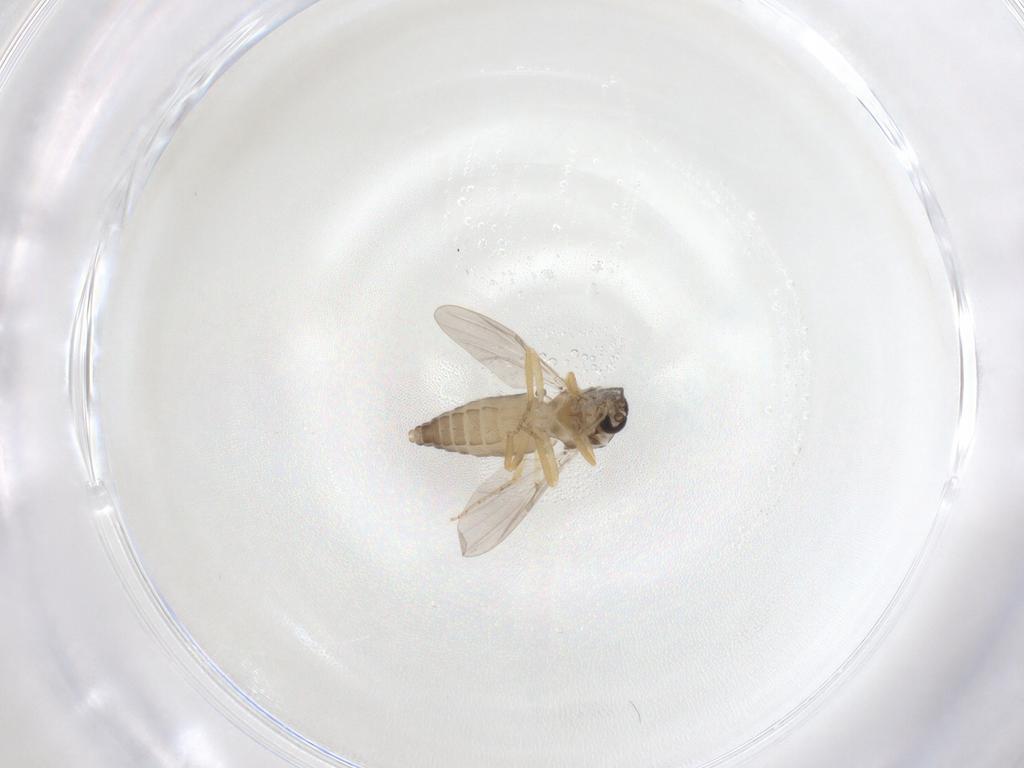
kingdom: Animalia
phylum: Arthropoda
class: Insecta
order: Diptera
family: Ceratopogonidae
